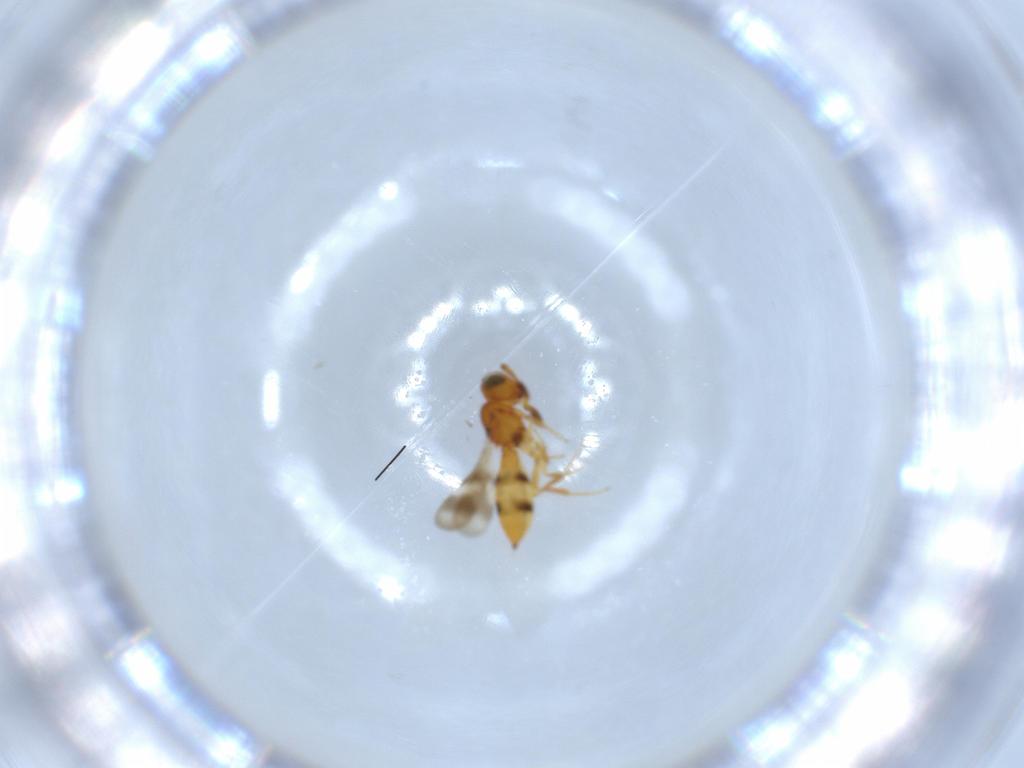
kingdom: Animalia
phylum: Arthropoda
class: Insecta
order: Hymenoptera
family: Scelionidae
